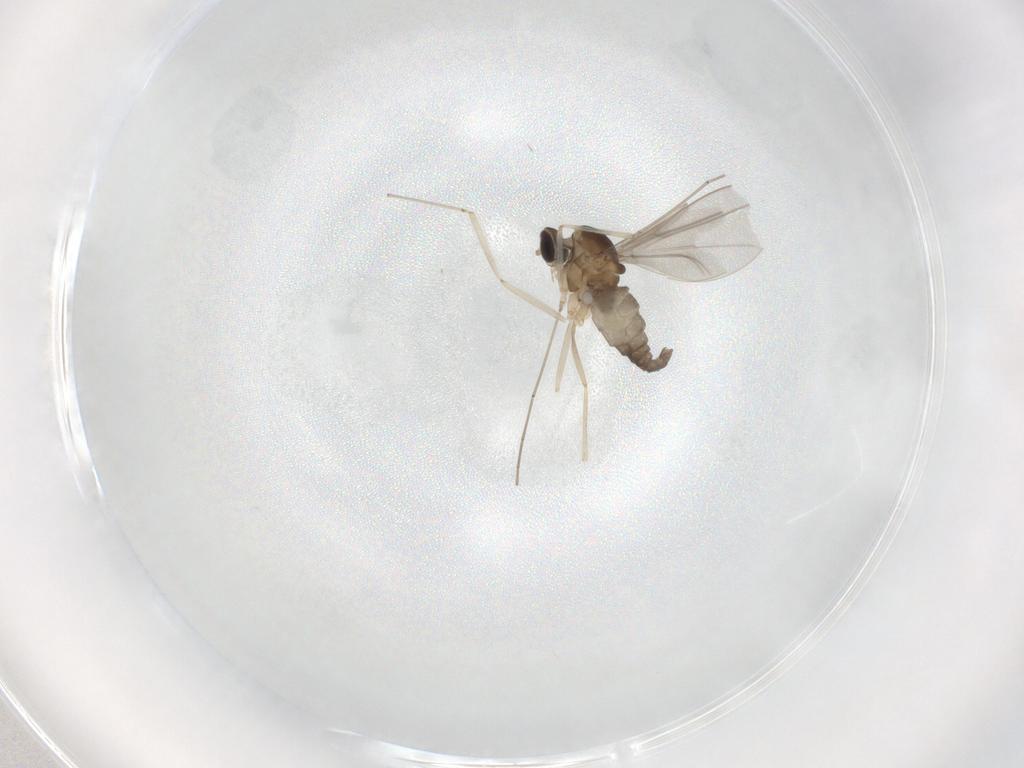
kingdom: Animalia
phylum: Arthropoda
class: Insecta
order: Diptera
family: Cecidomyiidae
